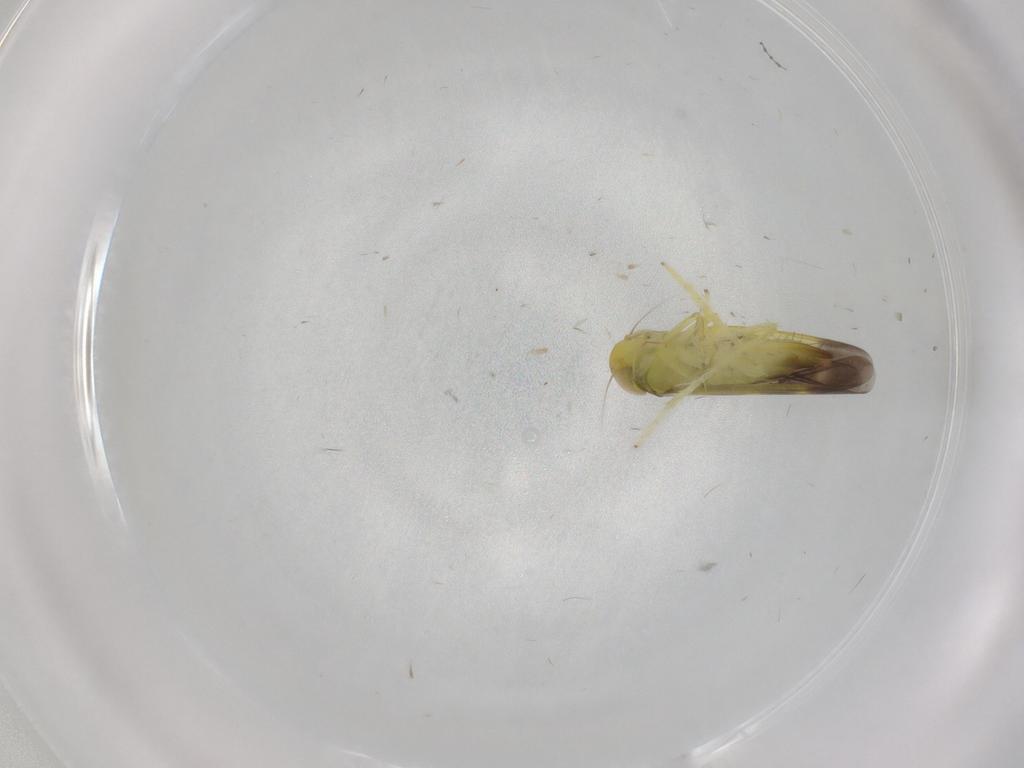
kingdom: Animalia
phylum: Arthropoda
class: Insecta
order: Hemiptera
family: Cicadellidae
